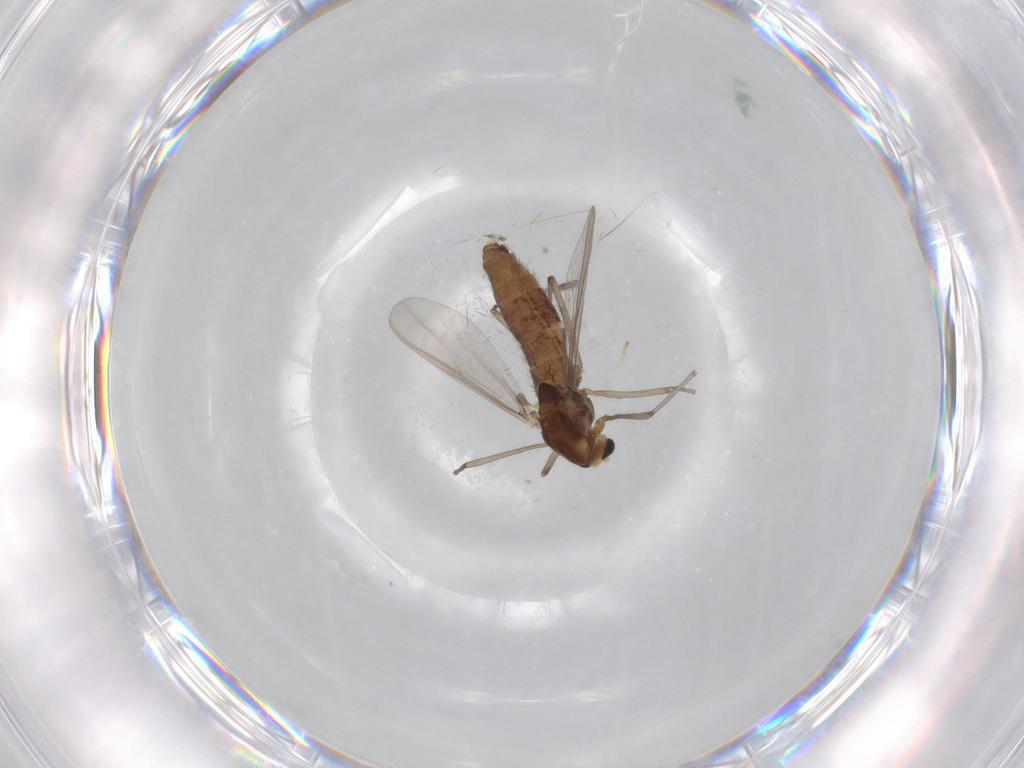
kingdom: Animalia
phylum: Arthropoda
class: Insecta
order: Diptera
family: Chironomidae
